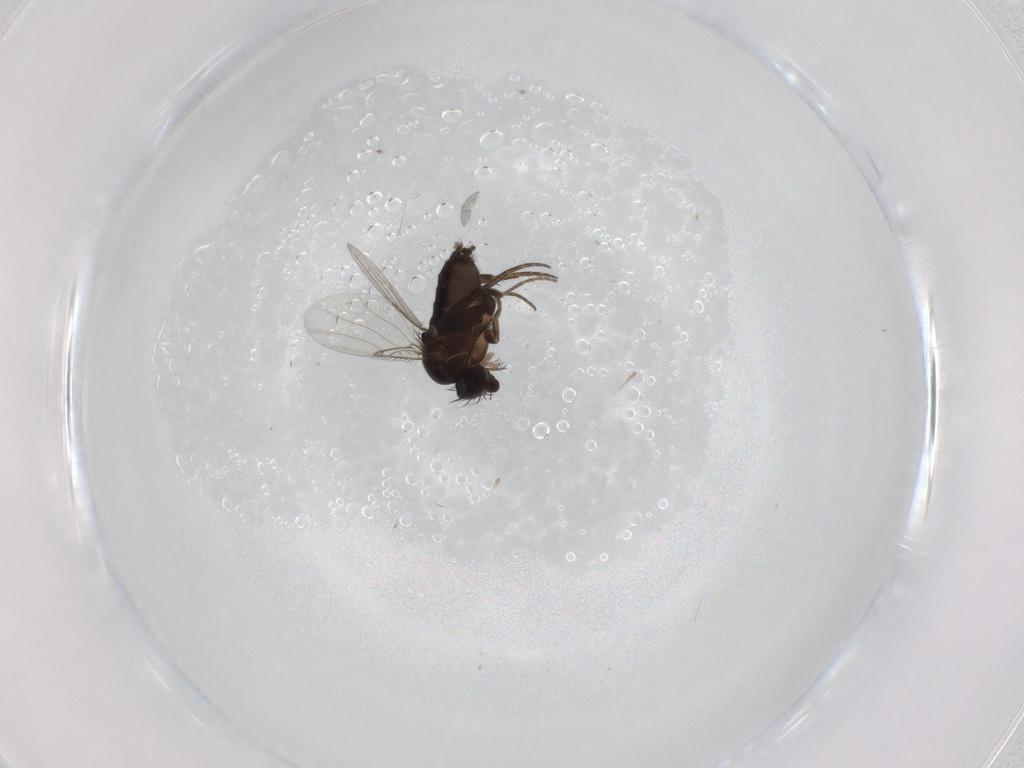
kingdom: Animalia
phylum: Arthropoda
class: Insecta
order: Diptera
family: Phoridae
